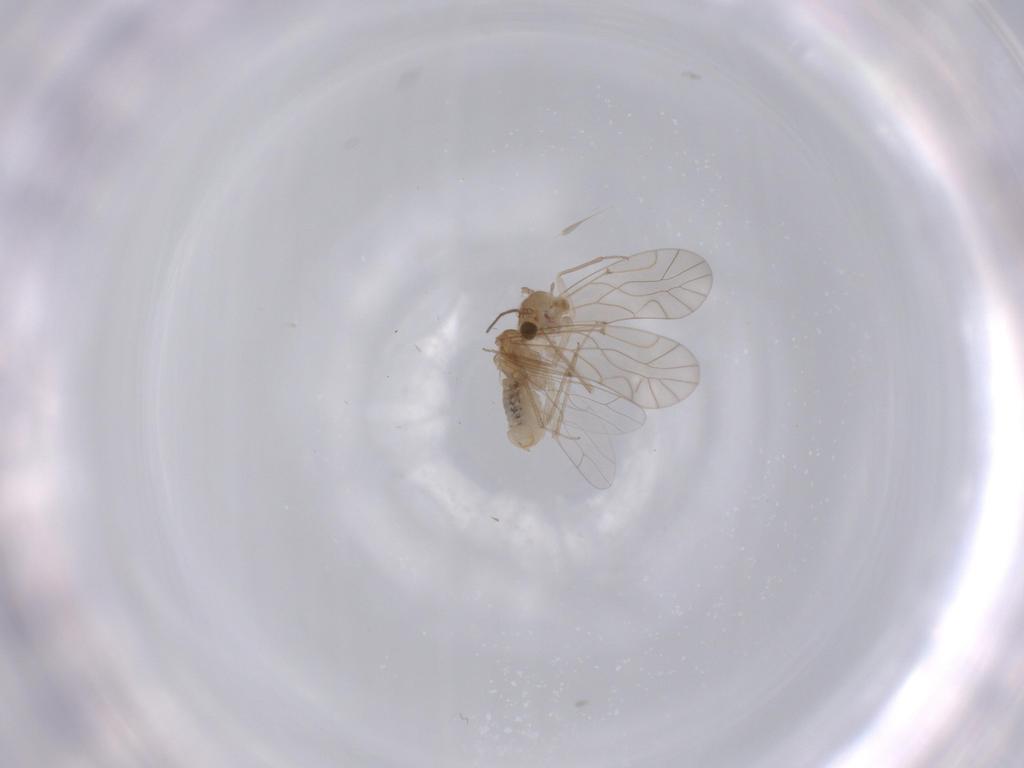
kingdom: Animalia
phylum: Arthropoda
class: Insecta
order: Psocodea
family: Lachesillidae
